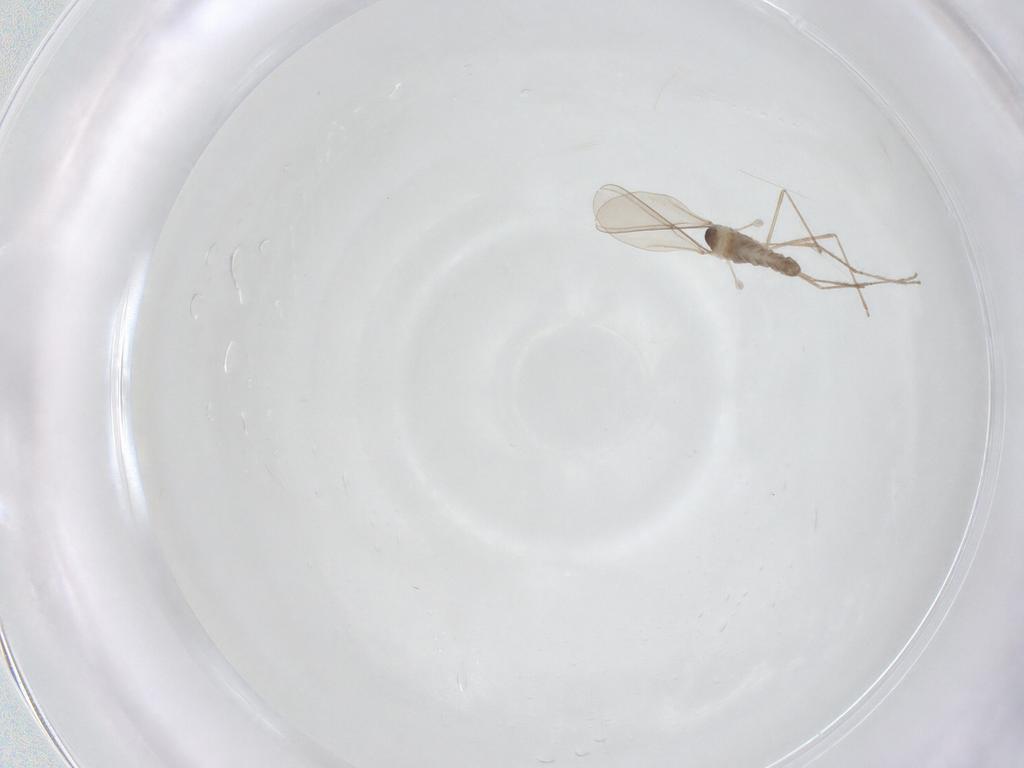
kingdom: Animalia
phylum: Arthropoda
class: Insecta
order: Diptera
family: Cecidomyiidae
